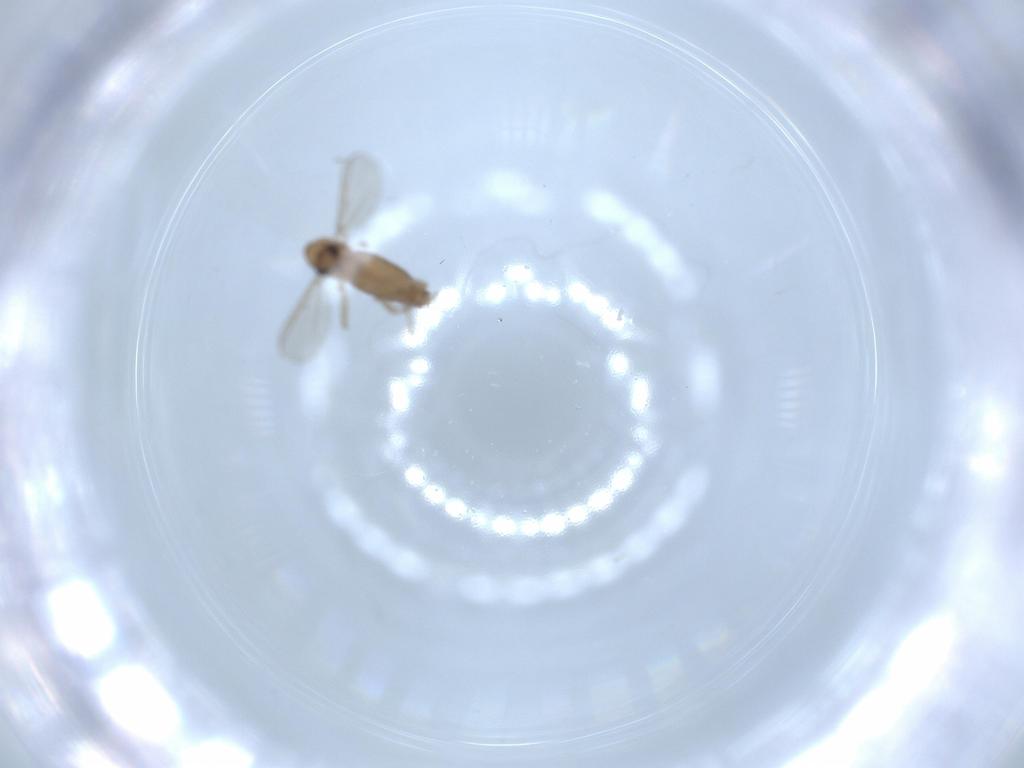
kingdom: Animalia
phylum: Arthropoda
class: Insecta
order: Diptera
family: Chironomidae
